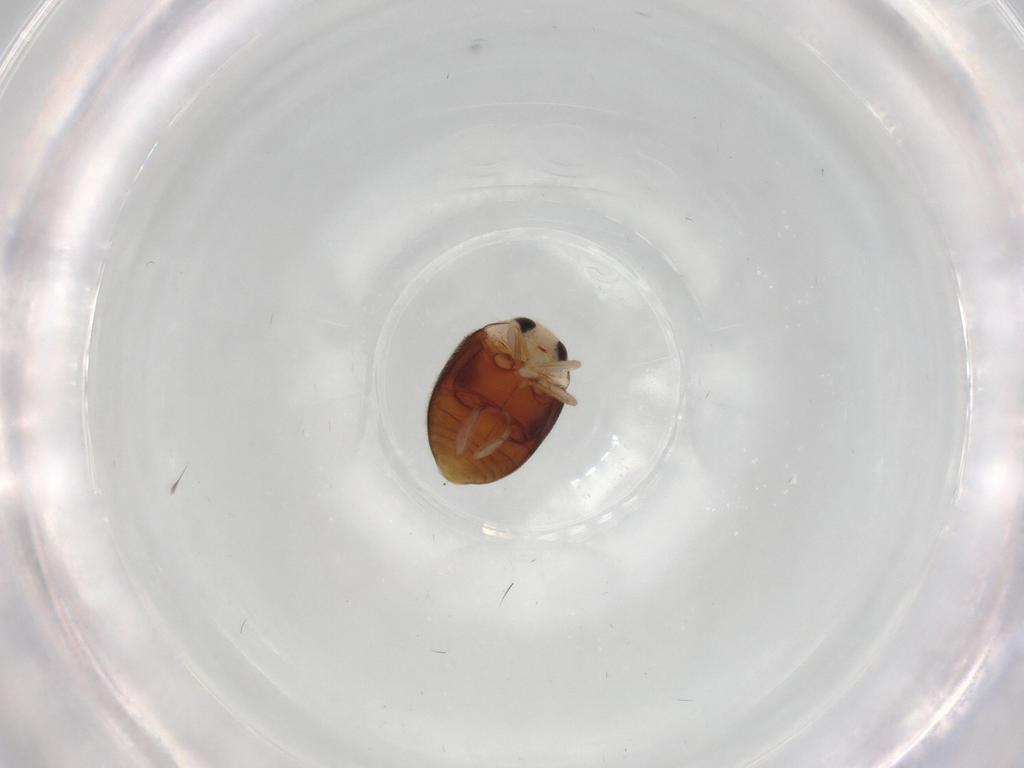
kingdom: Animalia
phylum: Arthropoda
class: Insecta
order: Coleoptera
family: Coccinellidae
